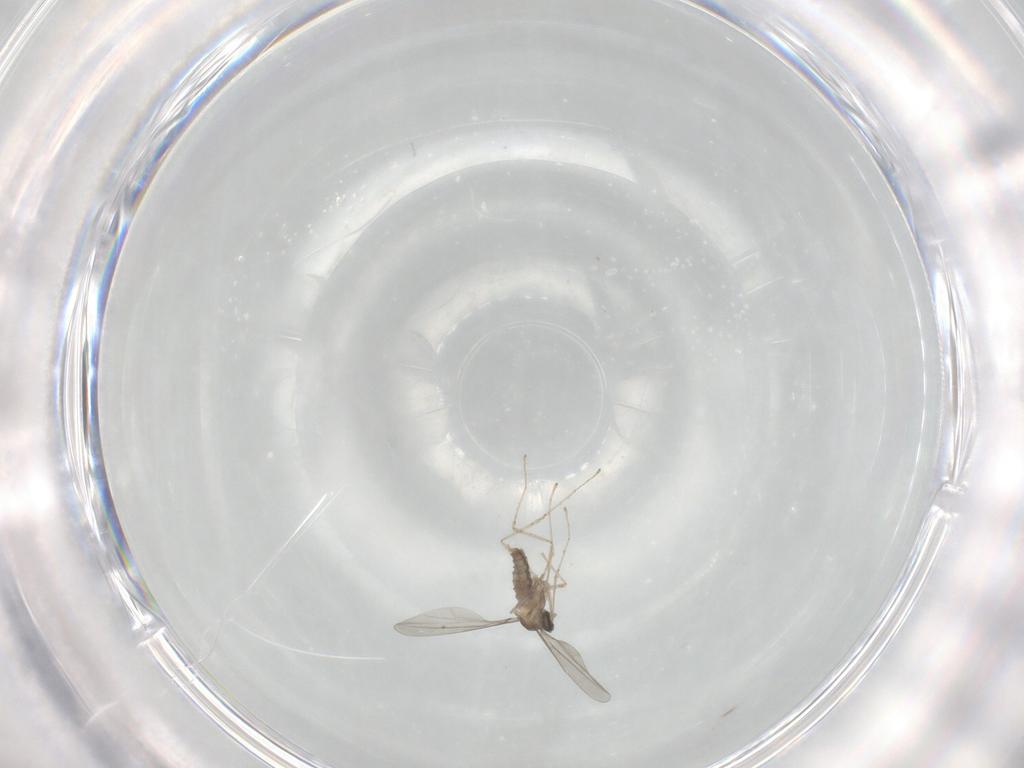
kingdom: Animalia
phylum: Arthropoda
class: Insecta
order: Diptera
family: Cecidomyiidae
